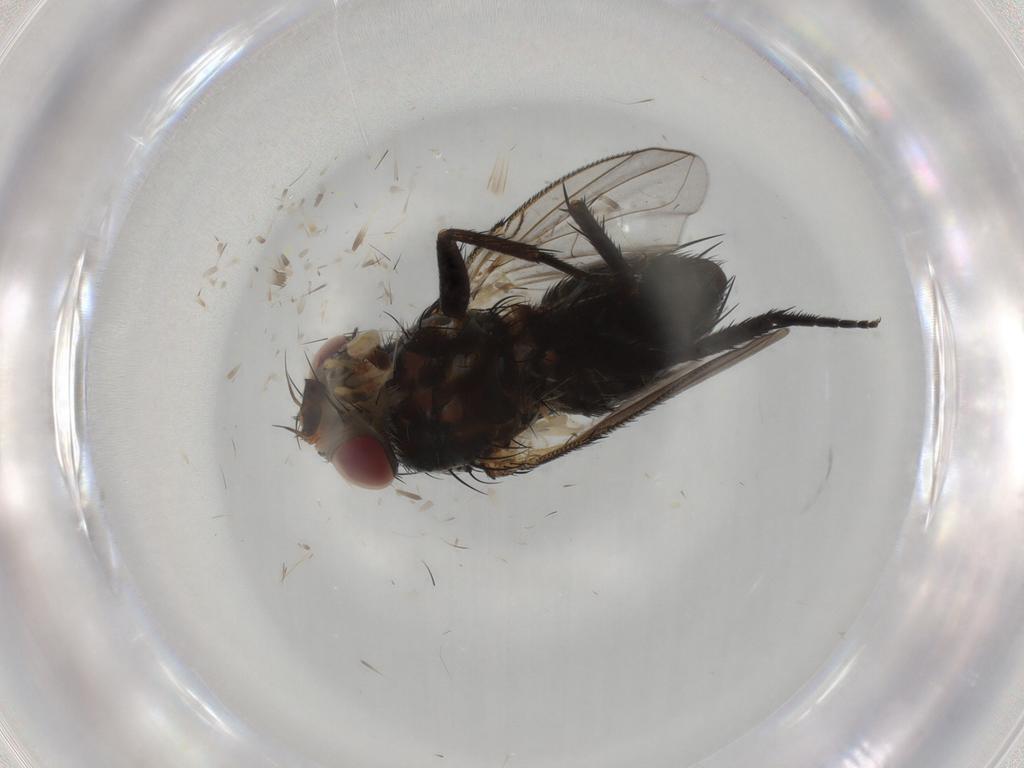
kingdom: Animalia
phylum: Arthropoda
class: Insecta
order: Diptera
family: Tachinidae
